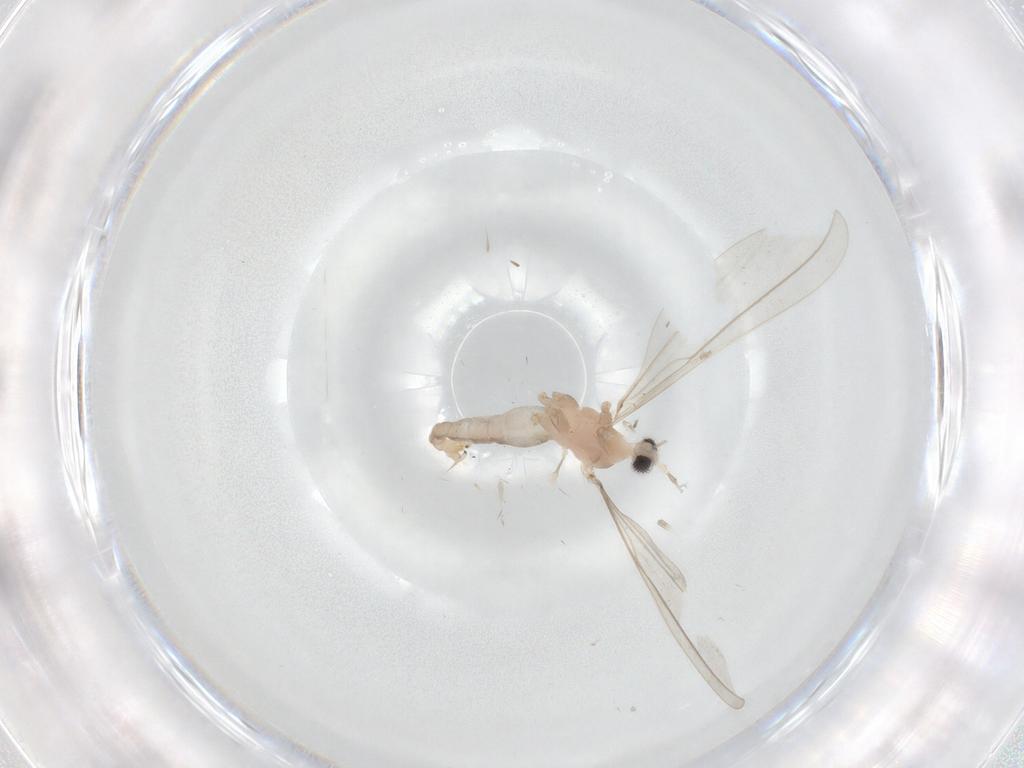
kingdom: Animalia
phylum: Arthropoda
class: Insecta
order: Diptera
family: Cecidomyiidae
